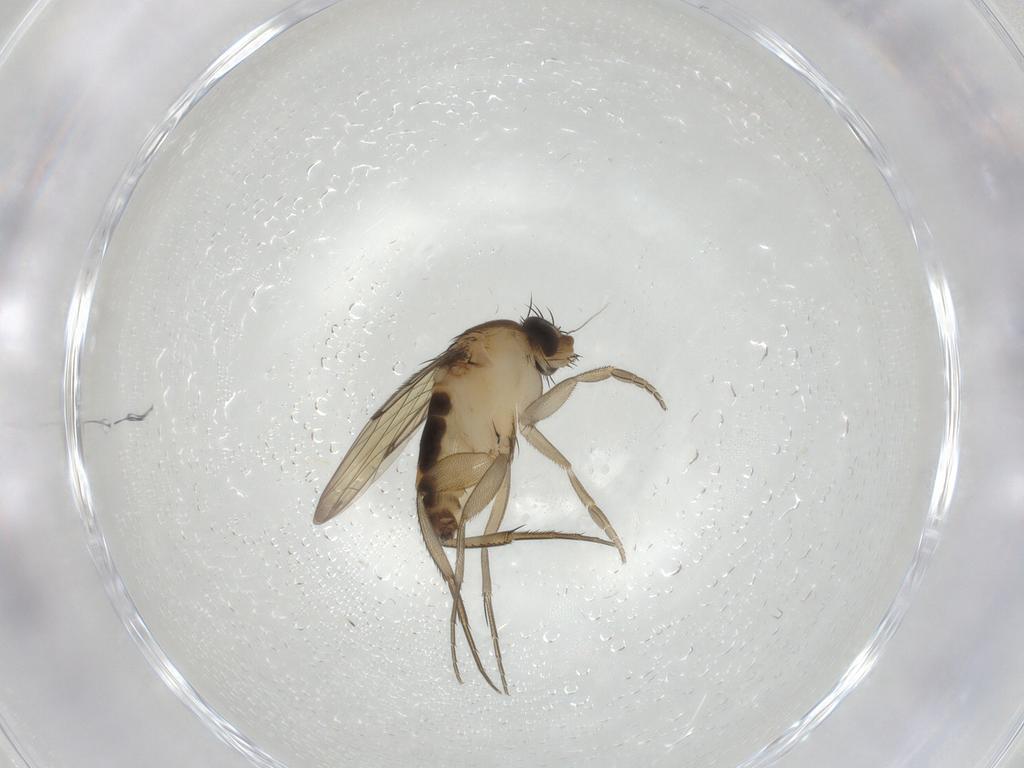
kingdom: Animalia
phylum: Arthropoda
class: Insecta
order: Diptera
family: Phoridae
